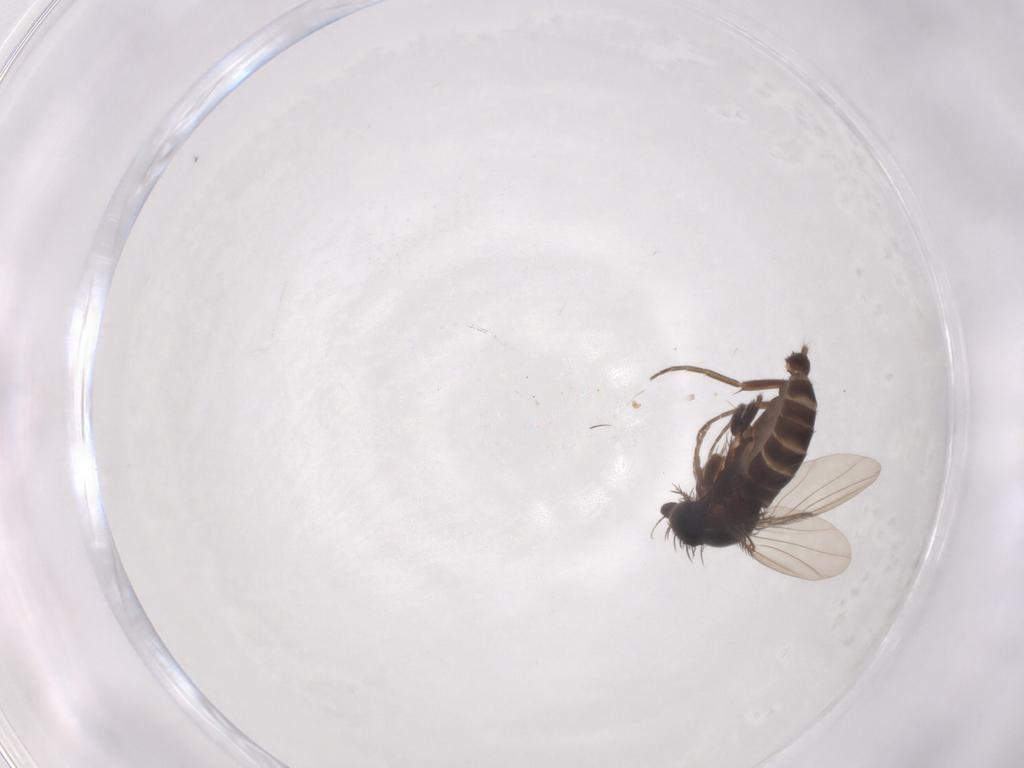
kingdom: Animalia
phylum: Arthropoda
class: Insecta
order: Diptera
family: Phoridae
